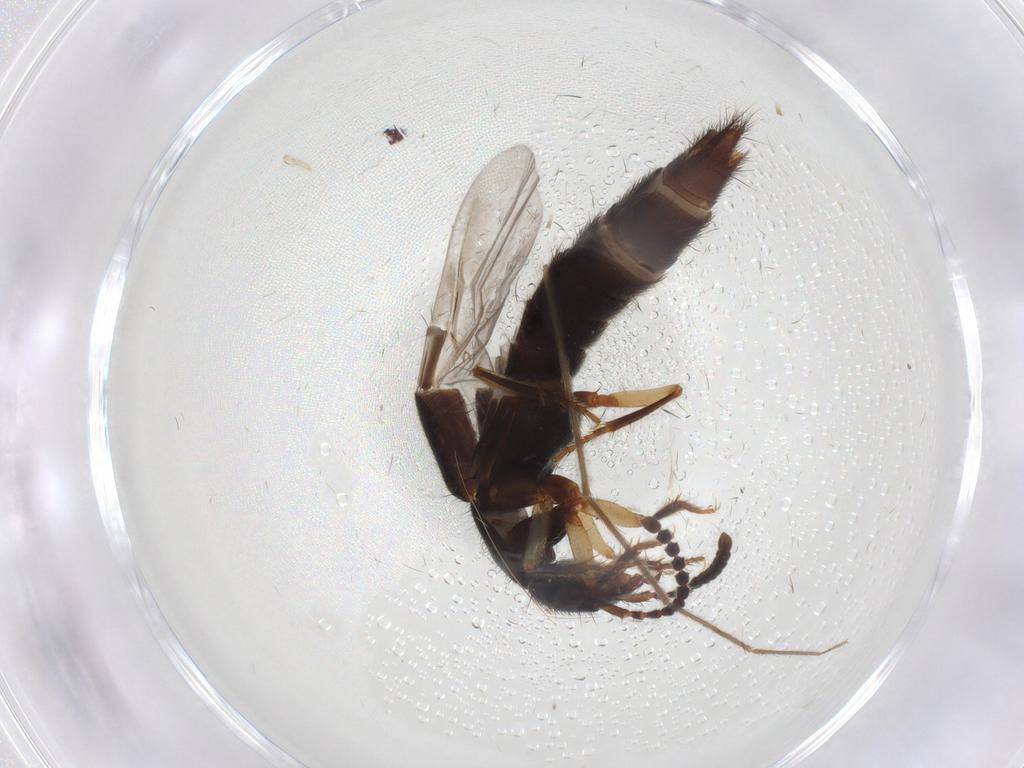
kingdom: Animalia
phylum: Arthropoda
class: Insecta
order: Coleoptera
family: Staphylinidae
